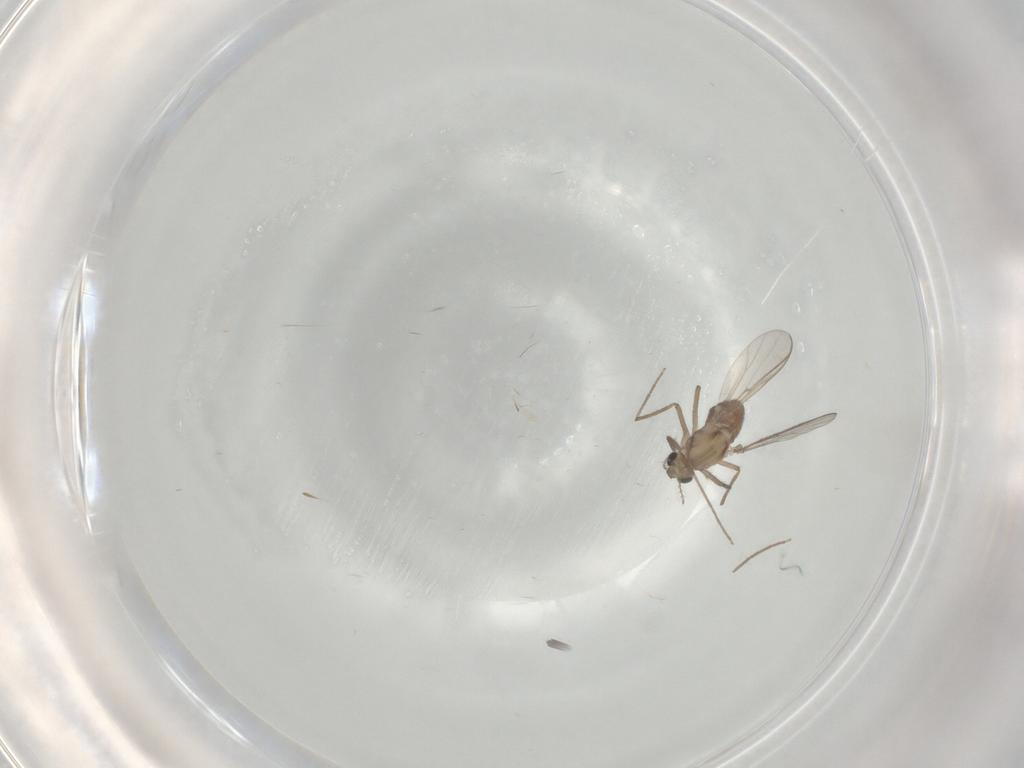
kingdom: Animalia
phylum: Arthropoda
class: Insecta
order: Diptera
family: Chironomidae
